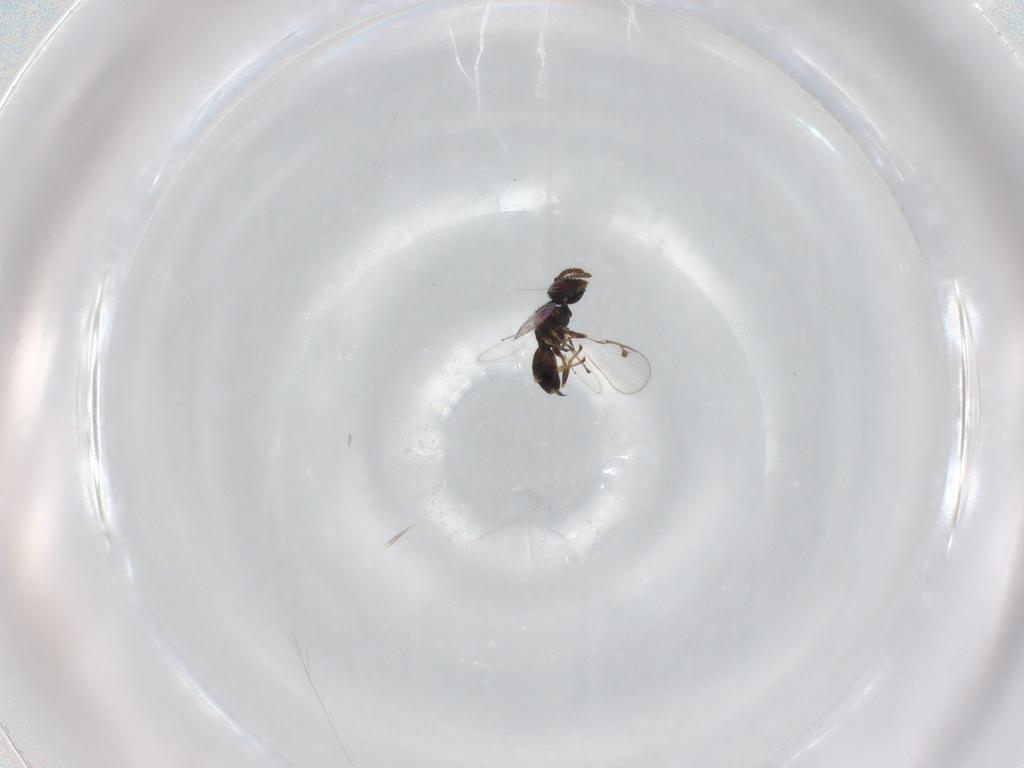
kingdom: Animalia
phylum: Arthropoda
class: Insecta
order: Hymenoptera
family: Pirenidae
